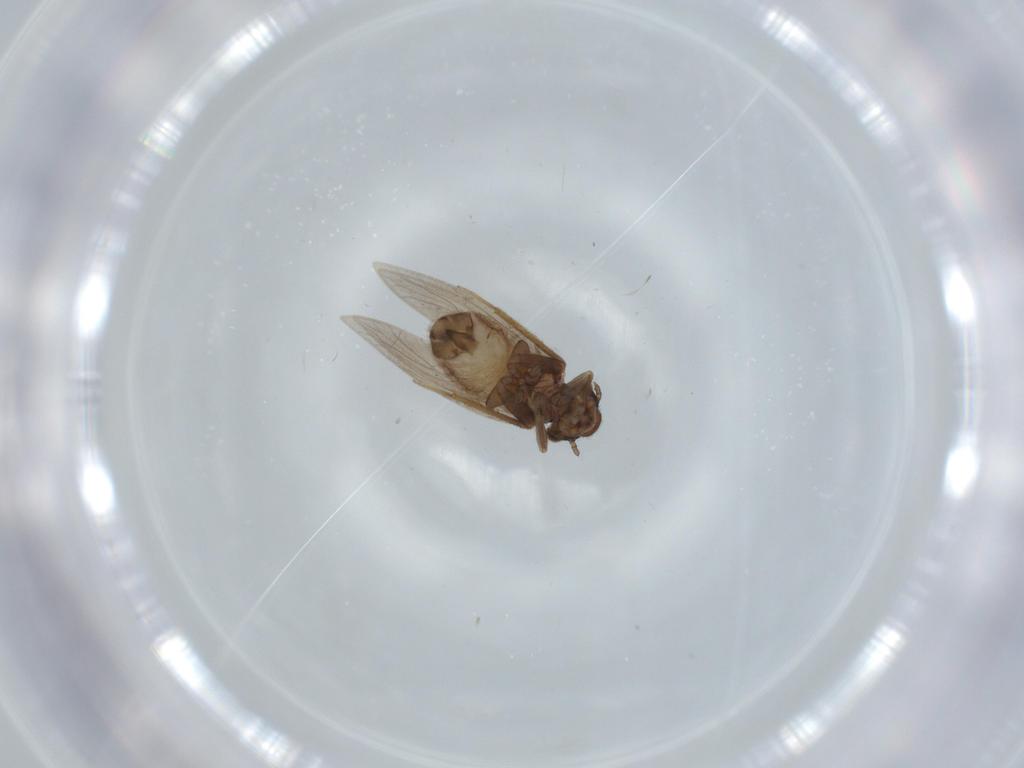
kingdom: Animalia
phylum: Arthropoda
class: Insecta
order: Psocodea
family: Lepidopsocidae
